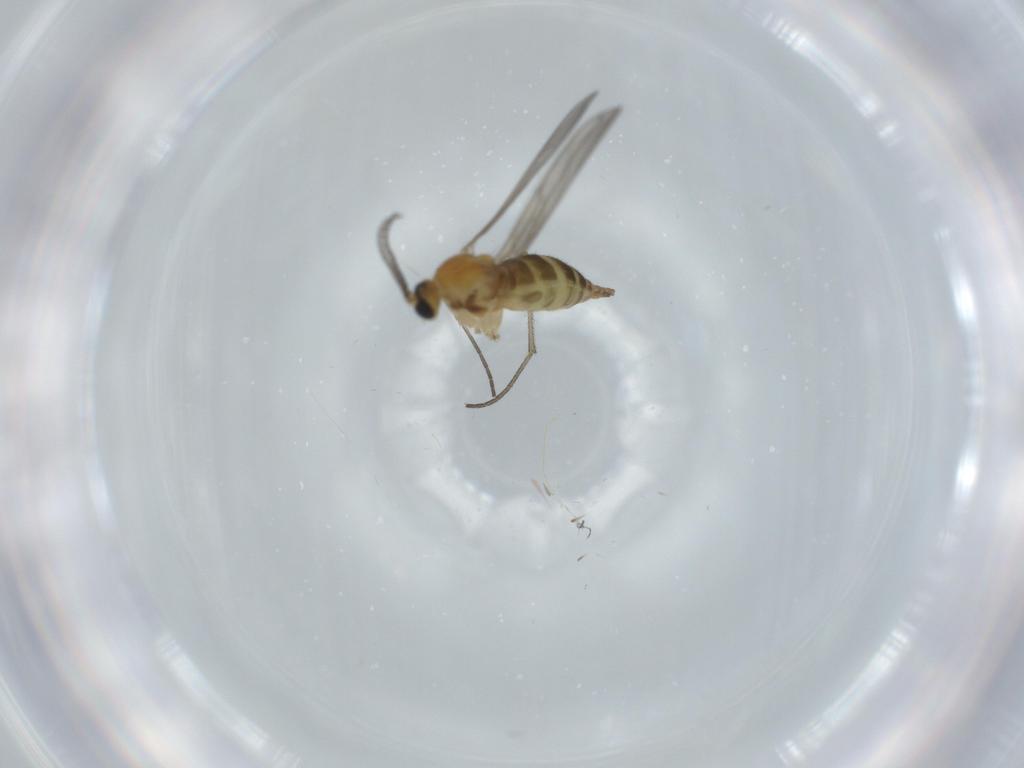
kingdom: Animalia
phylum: Arthropoda
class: Insecta
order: Diptera
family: Sciaridae
